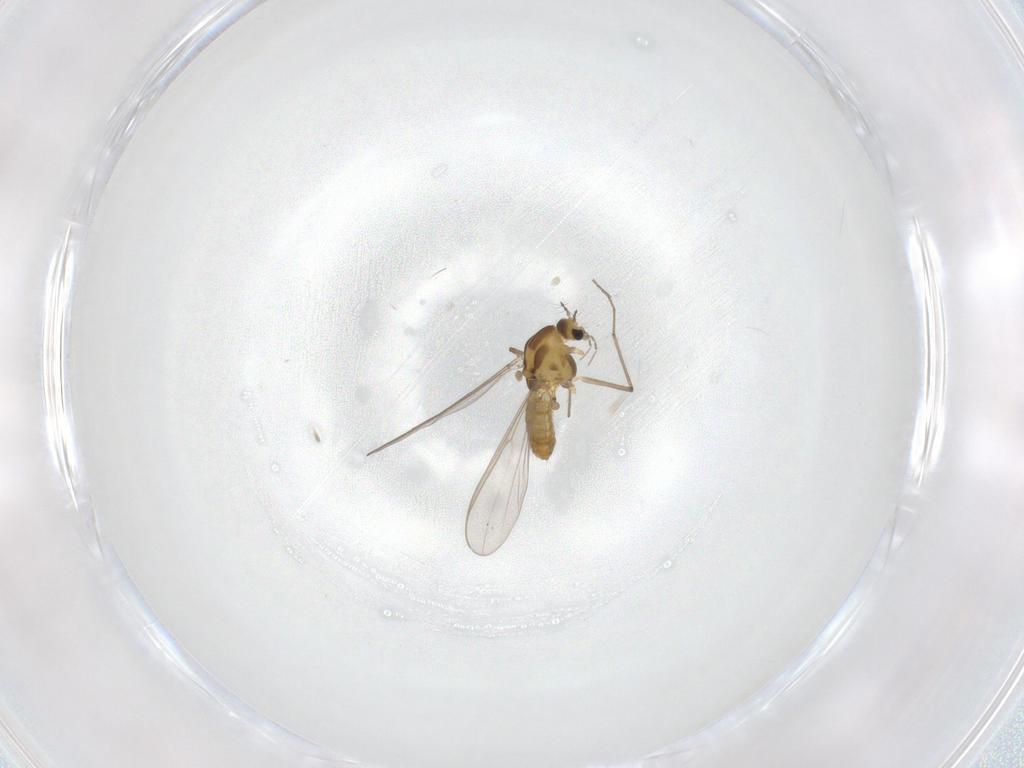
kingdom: Animalia
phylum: Arthropoda
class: Insecta
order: Diptera
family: Chironomidae
